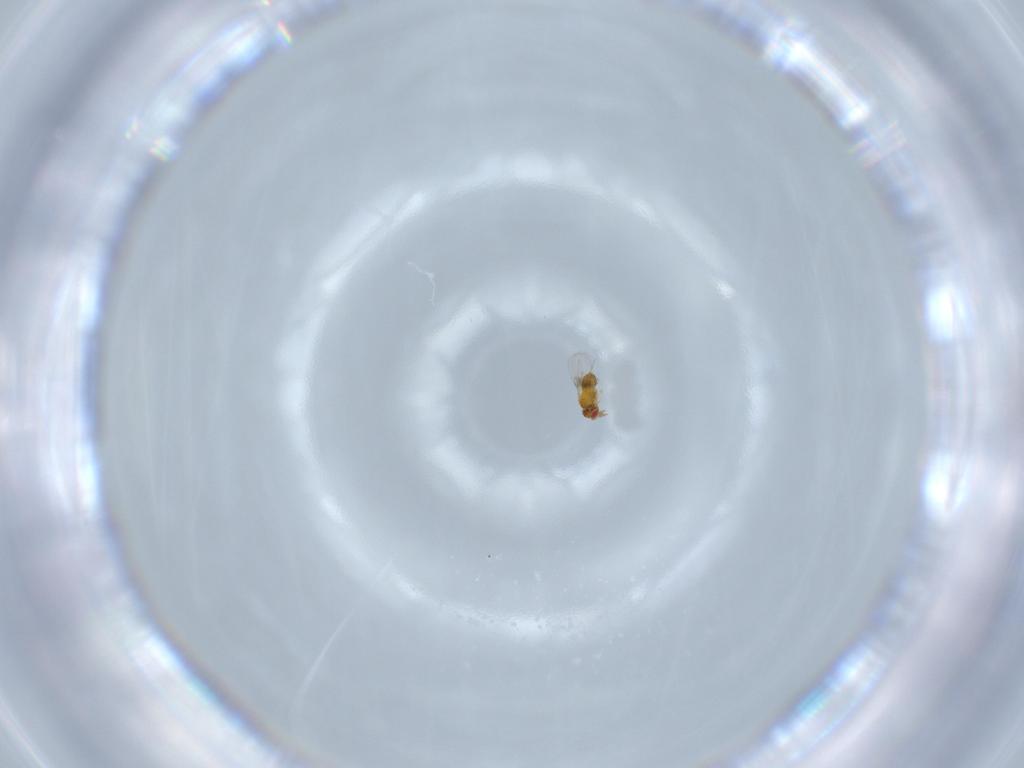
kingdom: Animalia
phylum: Arthropoda
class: Insecta
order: Hymenoptera
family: Trichogrammatidae
